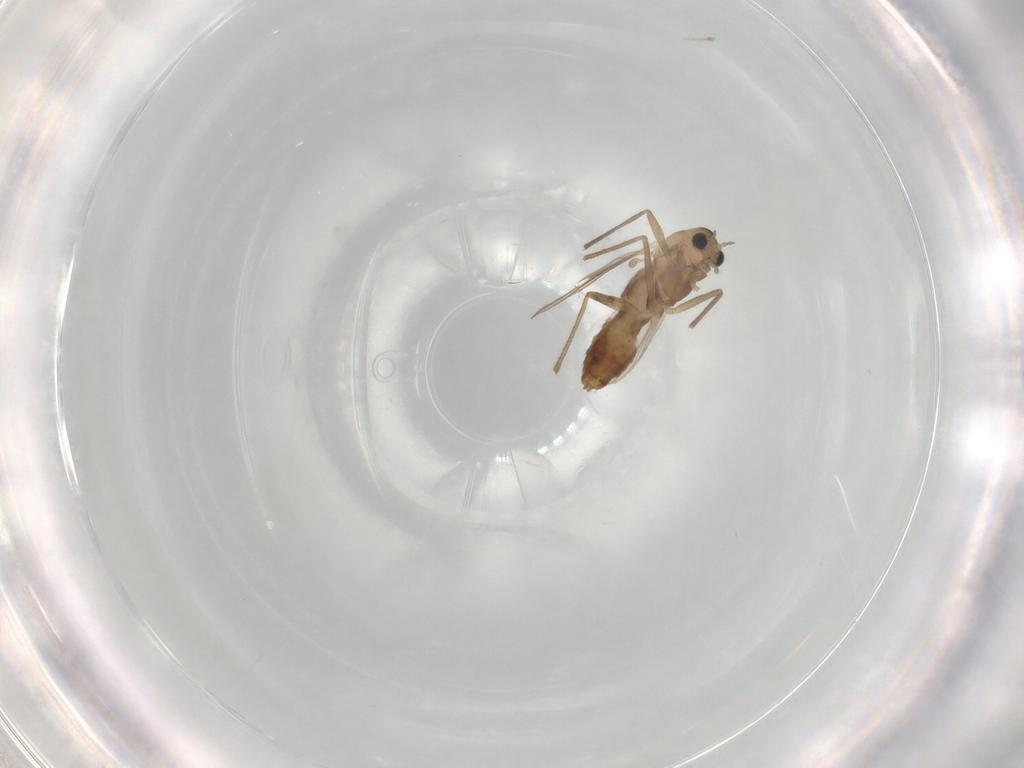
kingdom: Animalia
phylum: Arthropoda
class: Insecta
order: Diptera
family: Chironomidae
